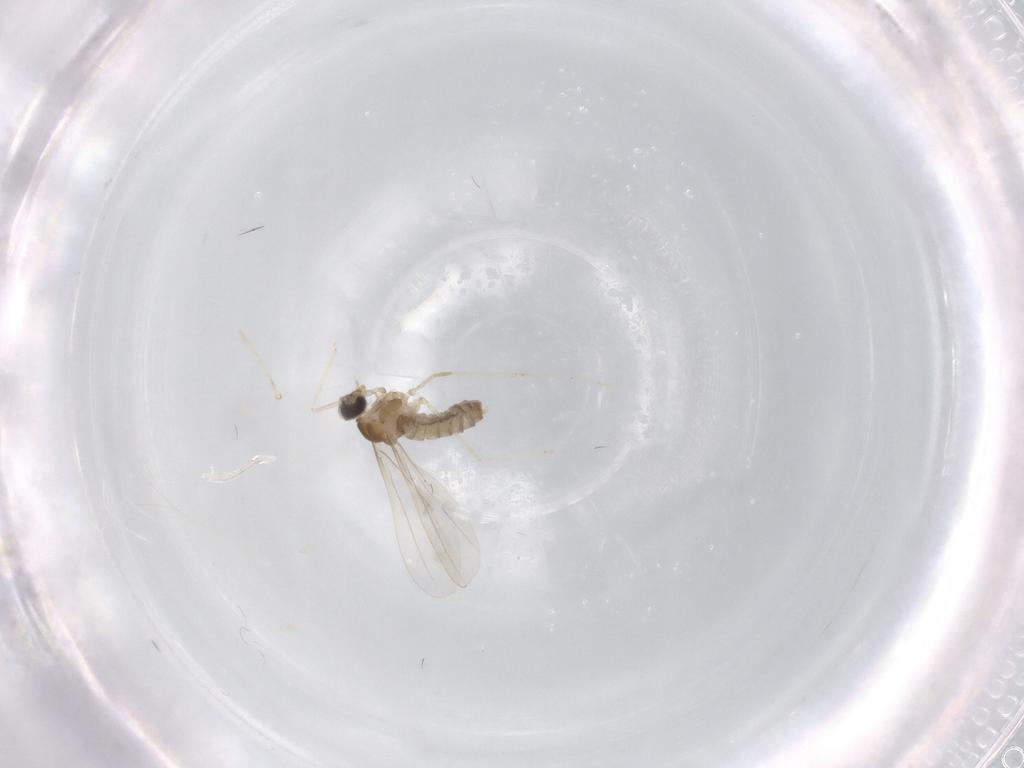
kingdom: Animalia
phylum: Arthropoda
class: Insecta
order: Diptera
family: Cecidomyiidae
